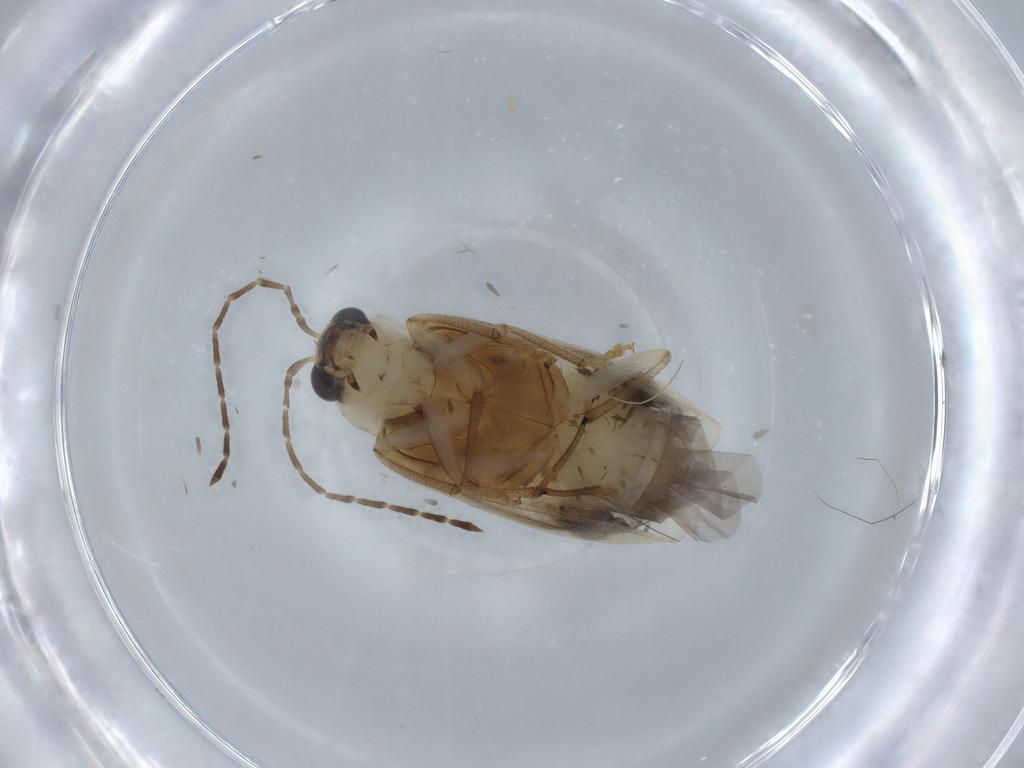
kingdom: Animalia
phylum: Arthropoda
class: Insecta
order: Coleoptera
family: Chrysomelidae
